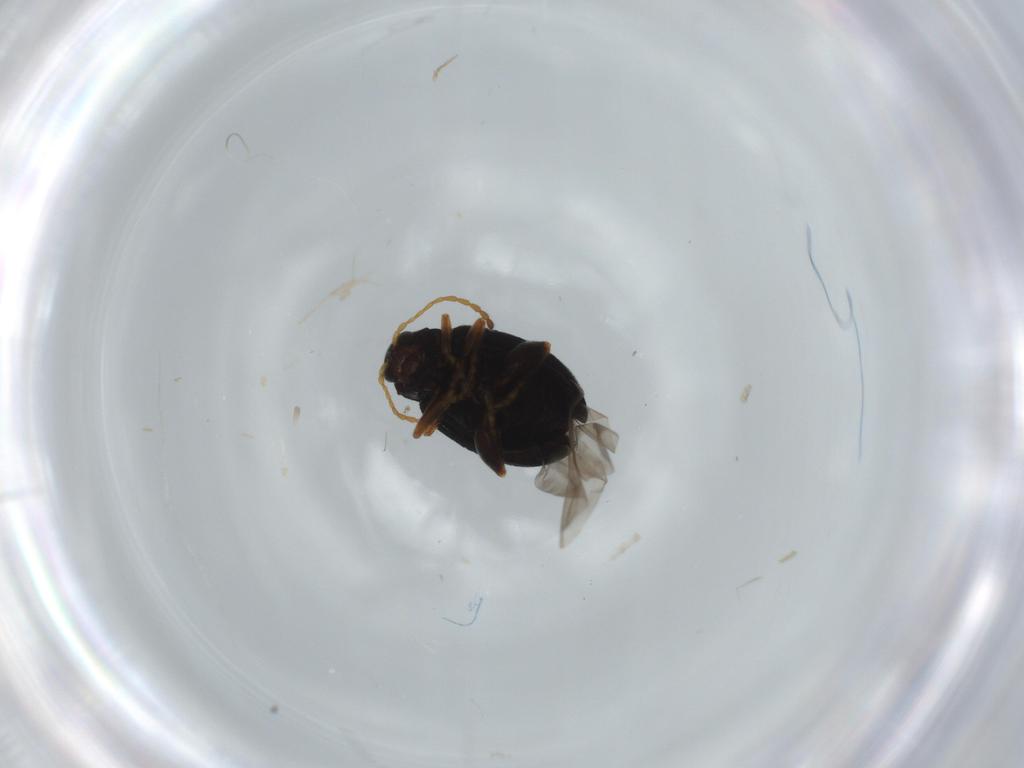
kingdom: Animalia
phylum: Arthropoda
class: Insecta
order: Coleoptera
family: Chrysomelidae
